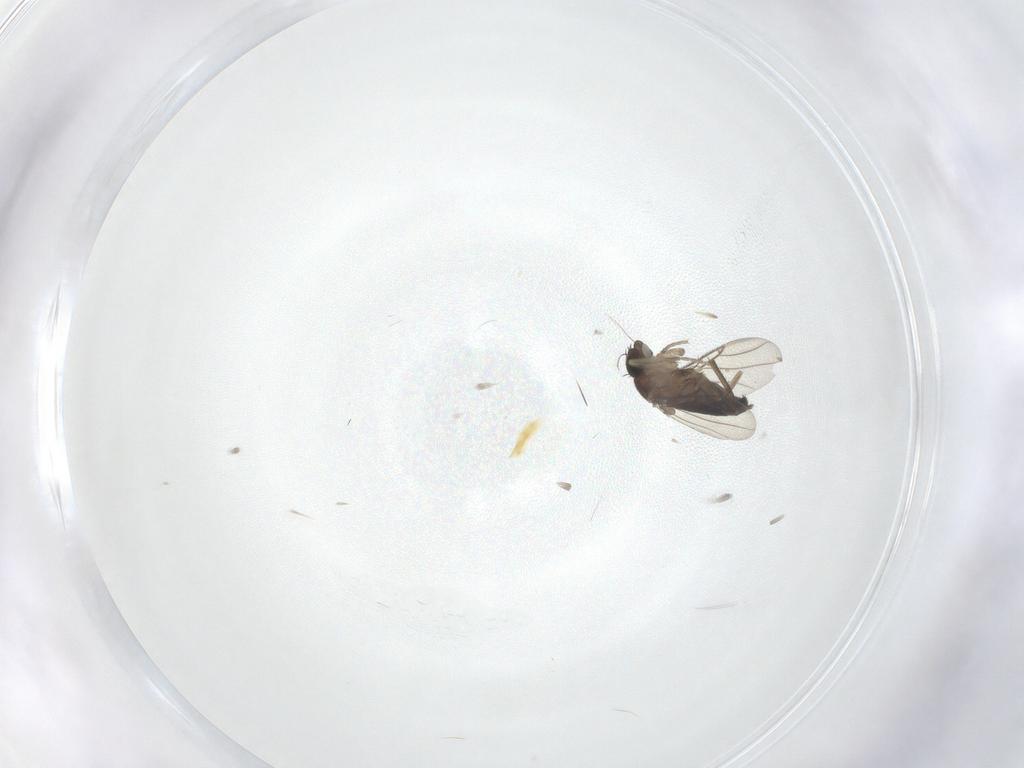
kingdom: Animalia
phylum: Arthropoda
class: Insecta
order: Diptera
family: Phoridae
